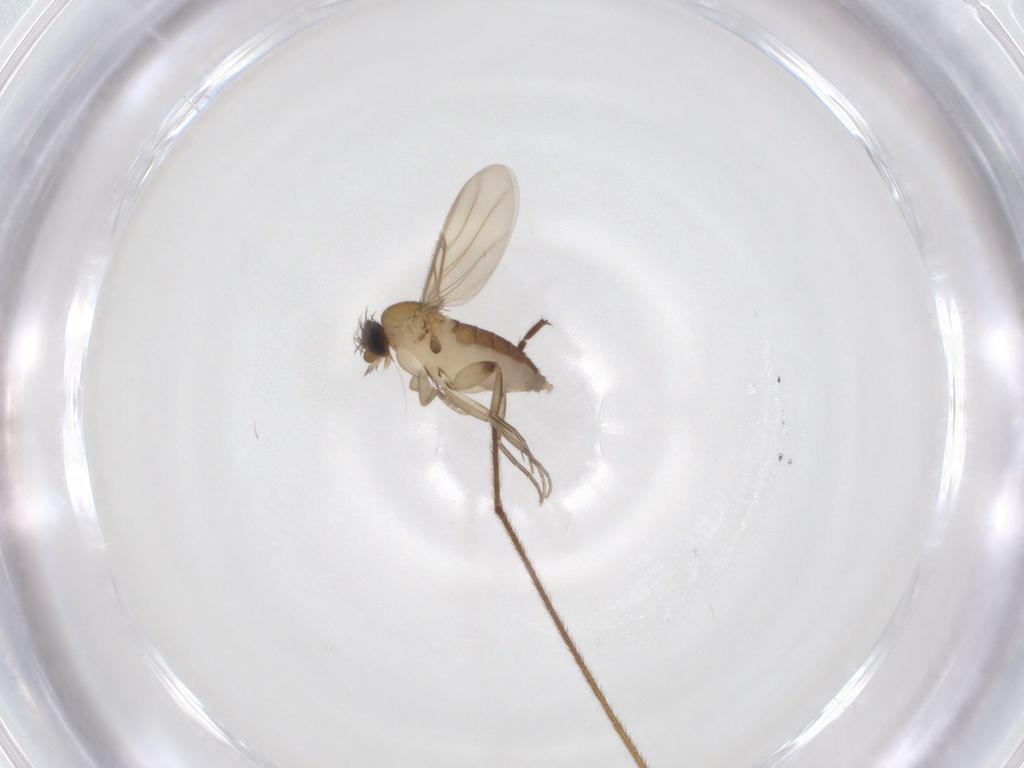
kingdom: Animalia
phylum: Arthropoda
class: Insecta
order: Diptera
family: Phoridae
